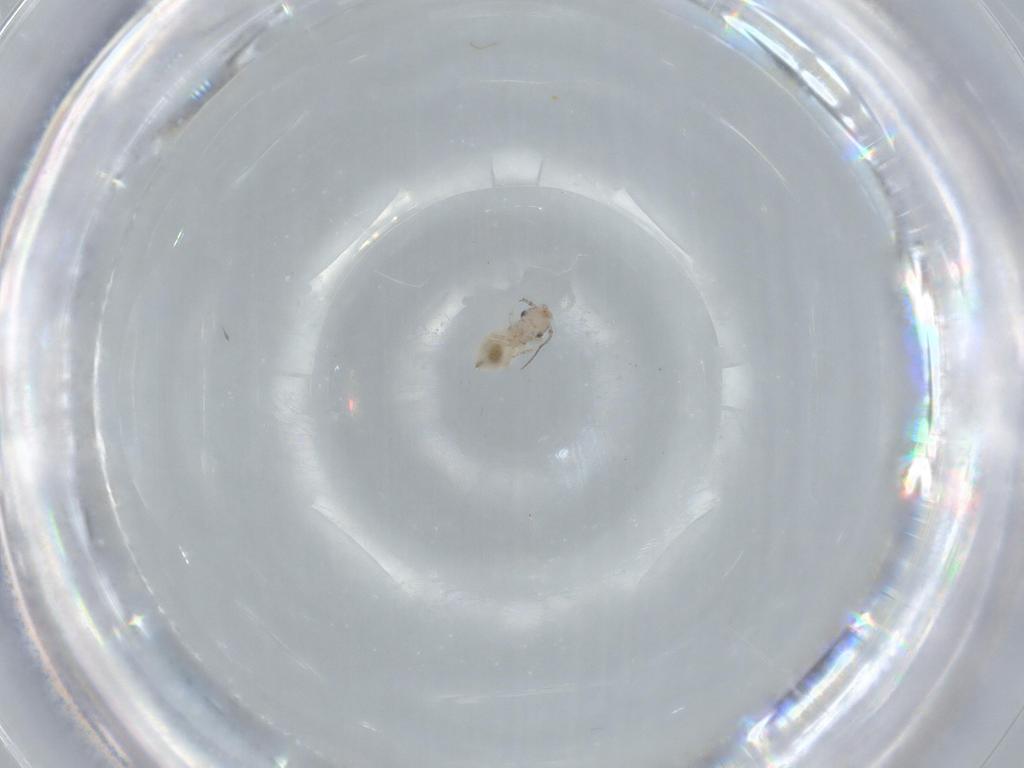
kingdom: Animalia
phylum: Arthropoda
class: Insecta
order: Psocodea
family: Lepidopsocidae
